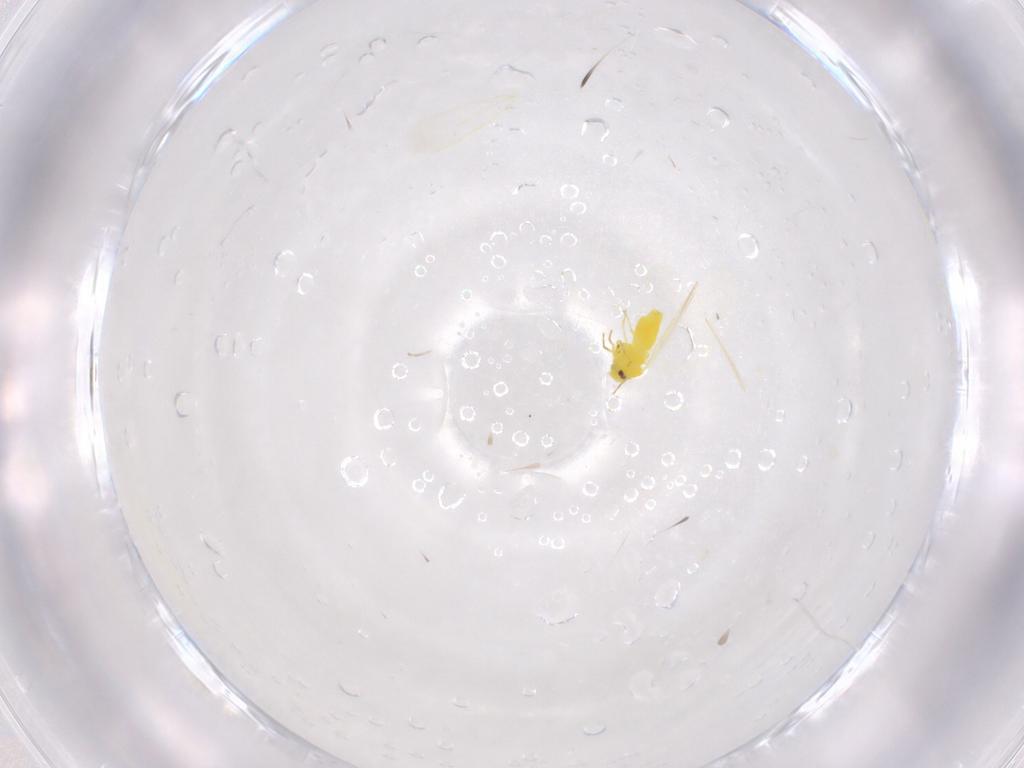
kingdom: Animalia
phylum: Arthropoda
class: Insecta
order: Hemiptera
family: Aleyrodidae
